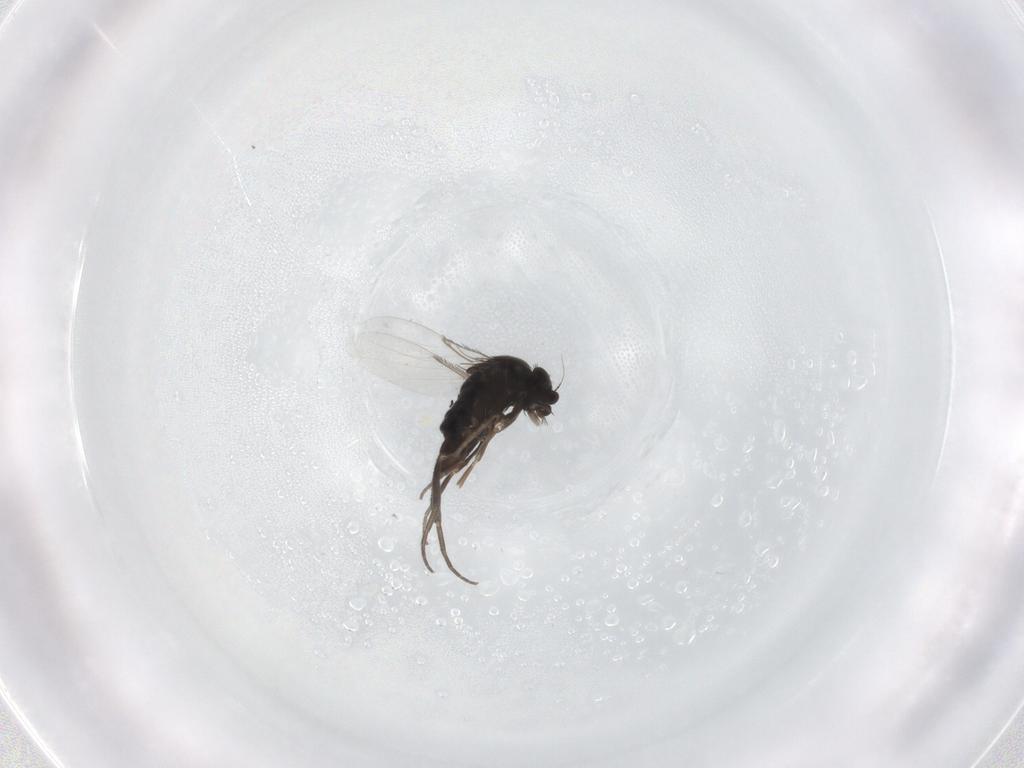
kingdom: Animalia
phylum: Arthropoda
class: Insecta
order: Diptera
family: Phoridae
